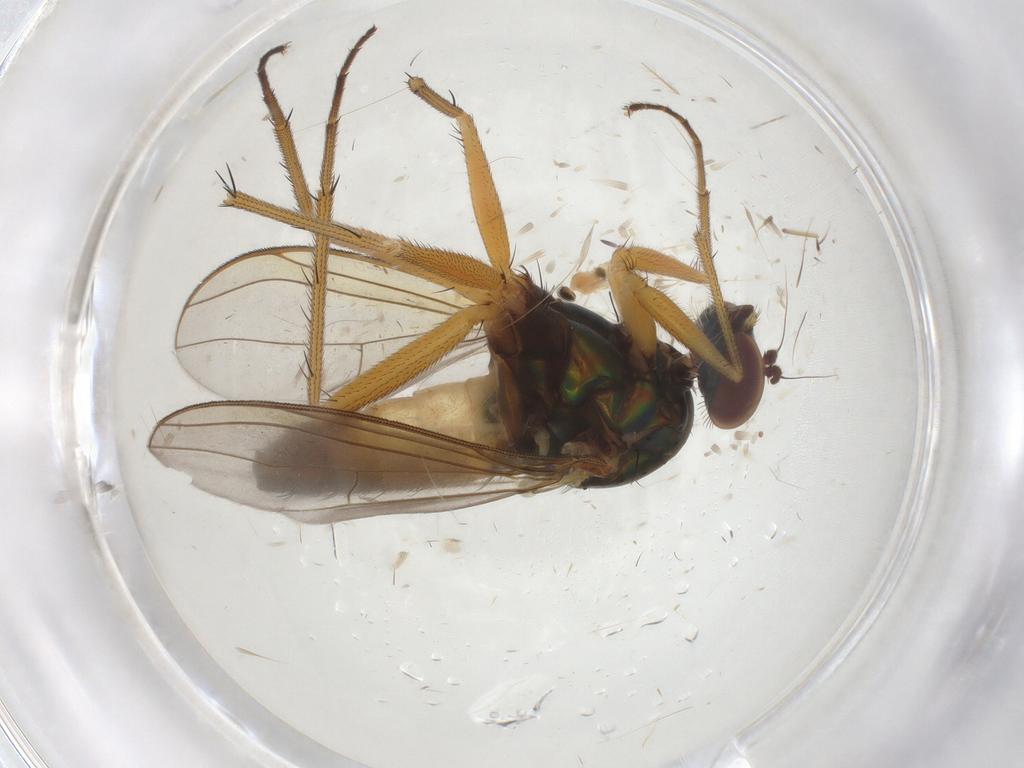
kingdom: Animalia
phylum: Arthropoda
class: Insecta
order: Diptera
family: Cecidomyiidae
